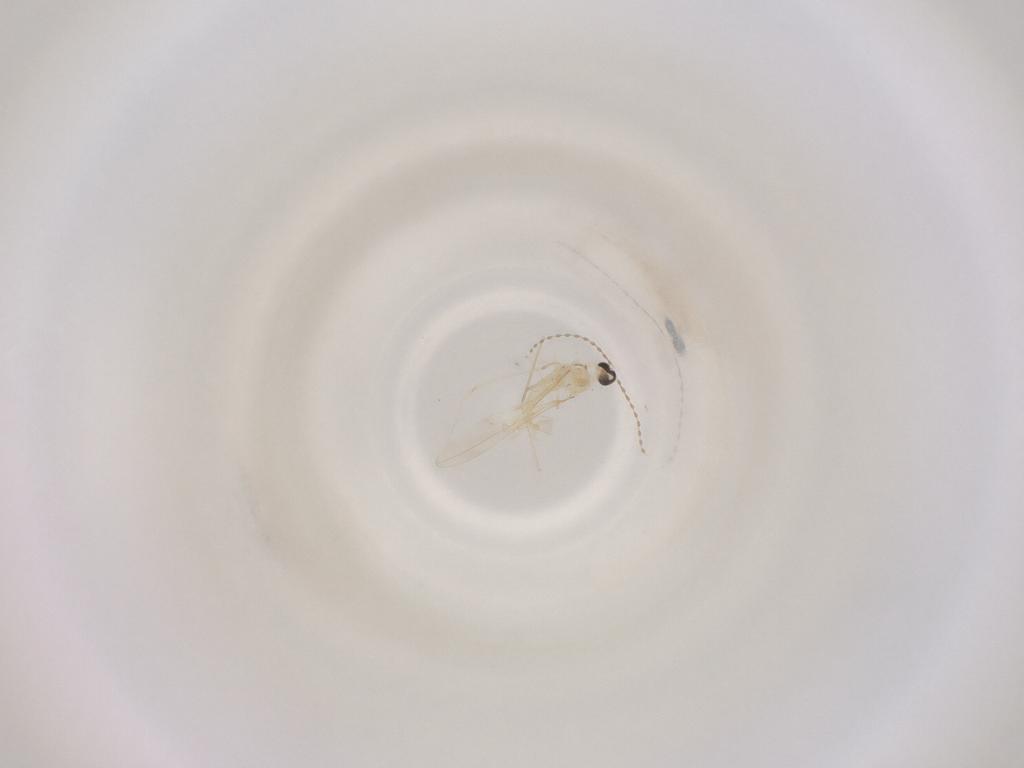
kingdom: Animalia
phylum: Arthropoda
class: Insecta
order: Diptera
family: Cecidomyiidae
